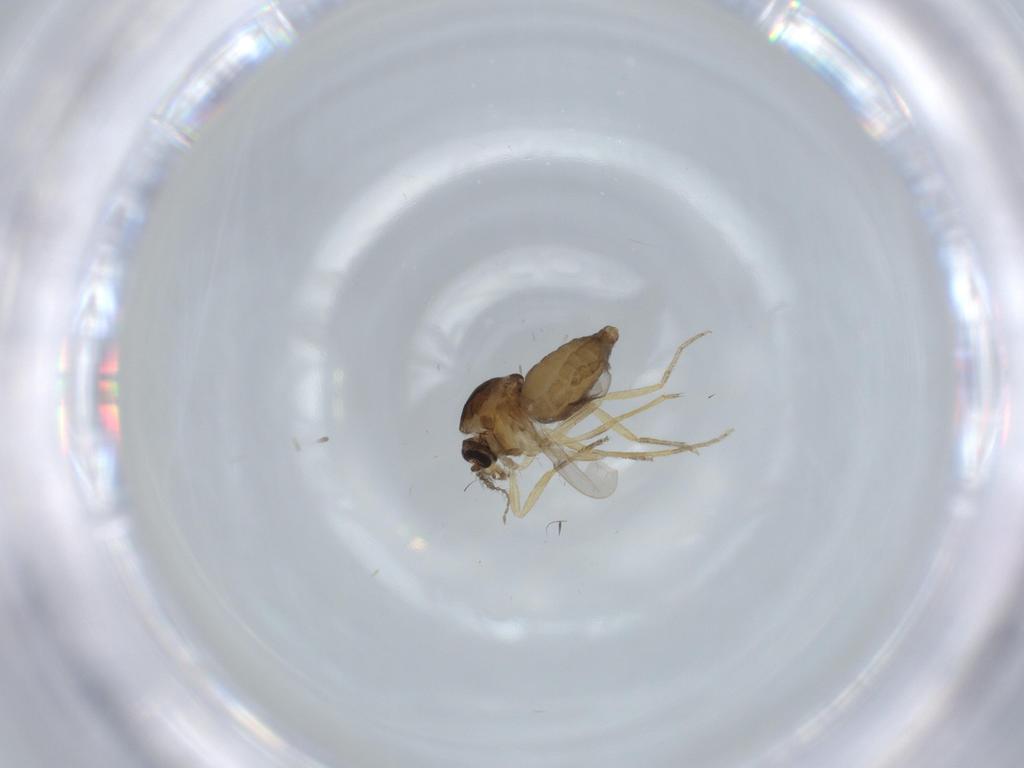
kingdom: Animalia
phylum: Arthropoda
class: Insecta
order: Diptera
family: Ceratopogonidae
